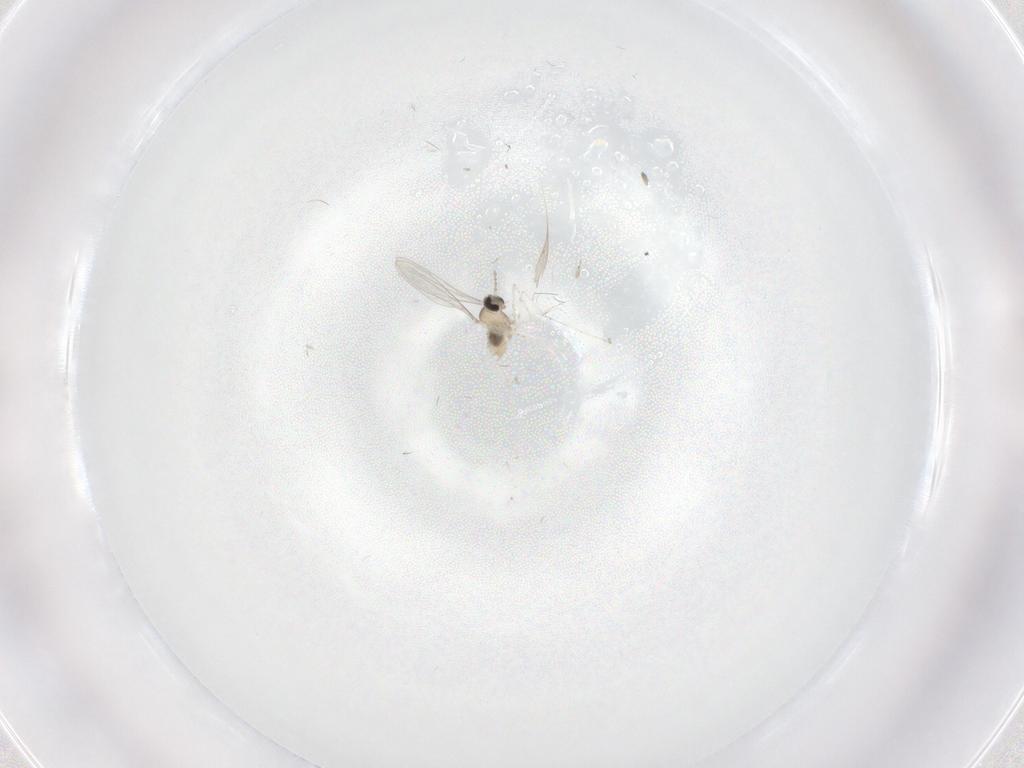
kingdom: Animalia
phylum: Arthropoda
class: Insecta
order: Diptera
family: Cecidomyiidae
